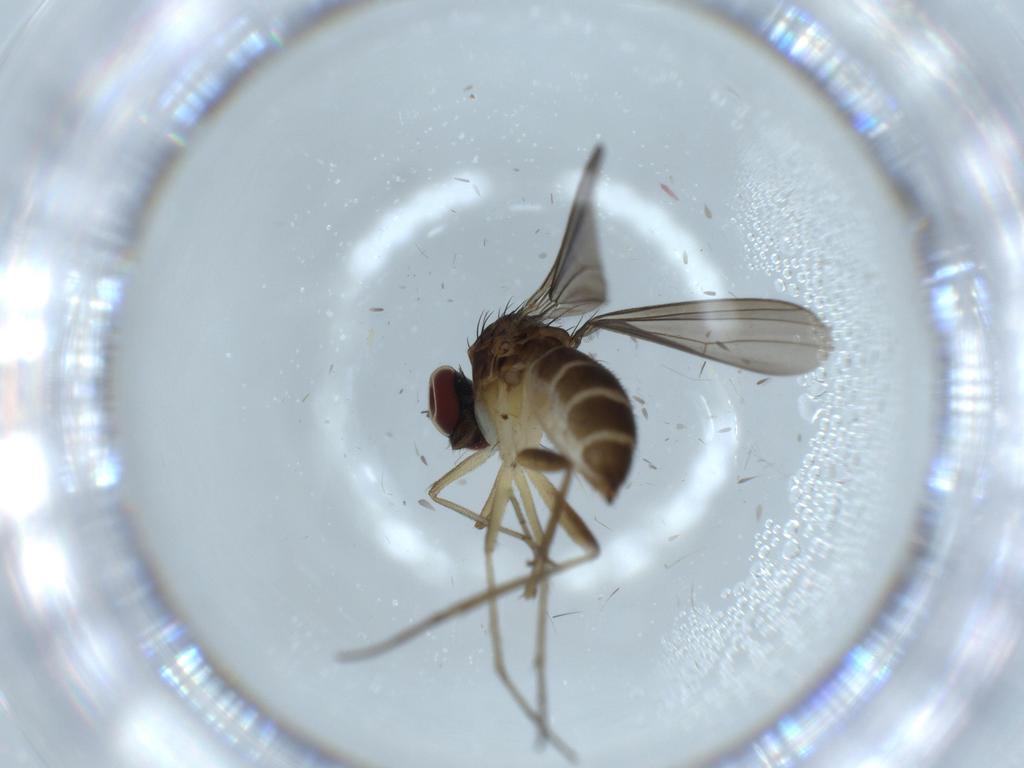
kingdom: Animalia
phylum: Arthropoda
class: Insecta
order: Diptera
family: Dolichopodidae
